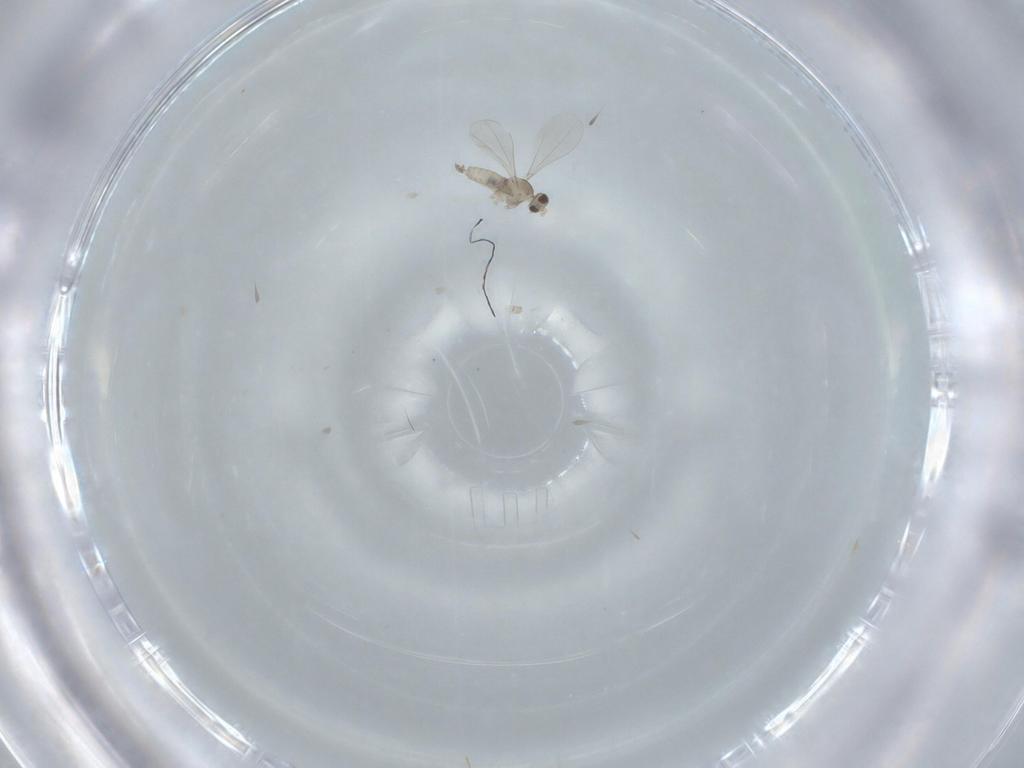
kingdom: Animalia
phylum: Arthropoda
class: Insecta
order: Diptera
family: Cecidomyiidae
